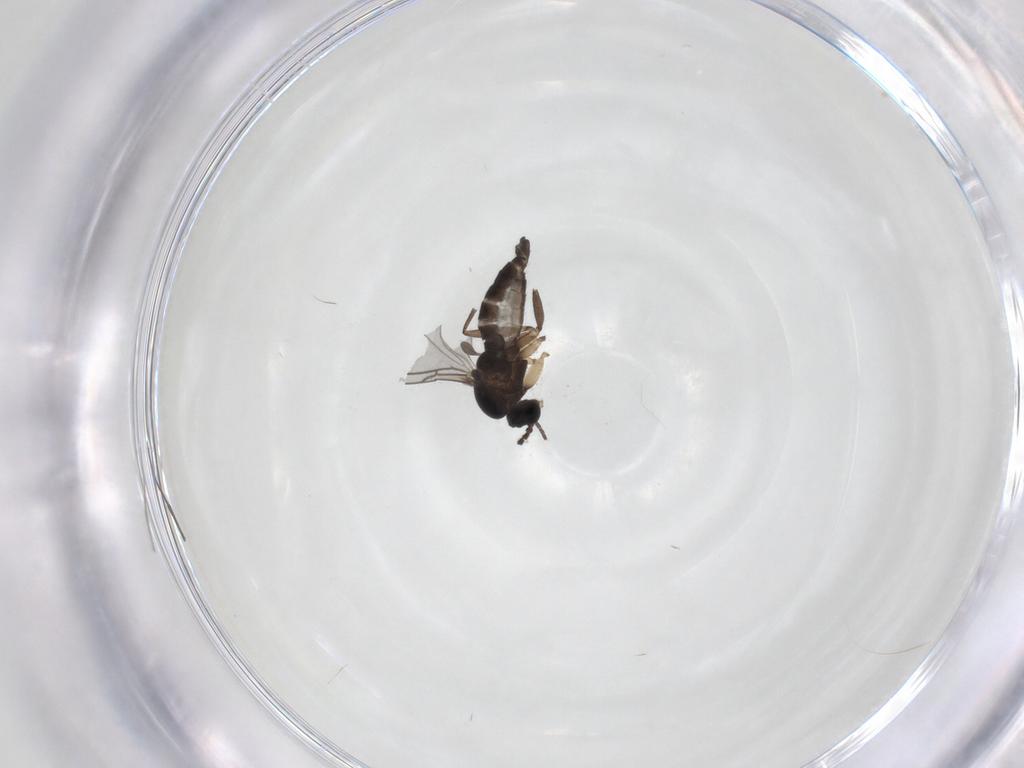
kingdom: Animalia
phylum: Arthropoda
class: Insecta
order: Diptera
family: Sciaridae
